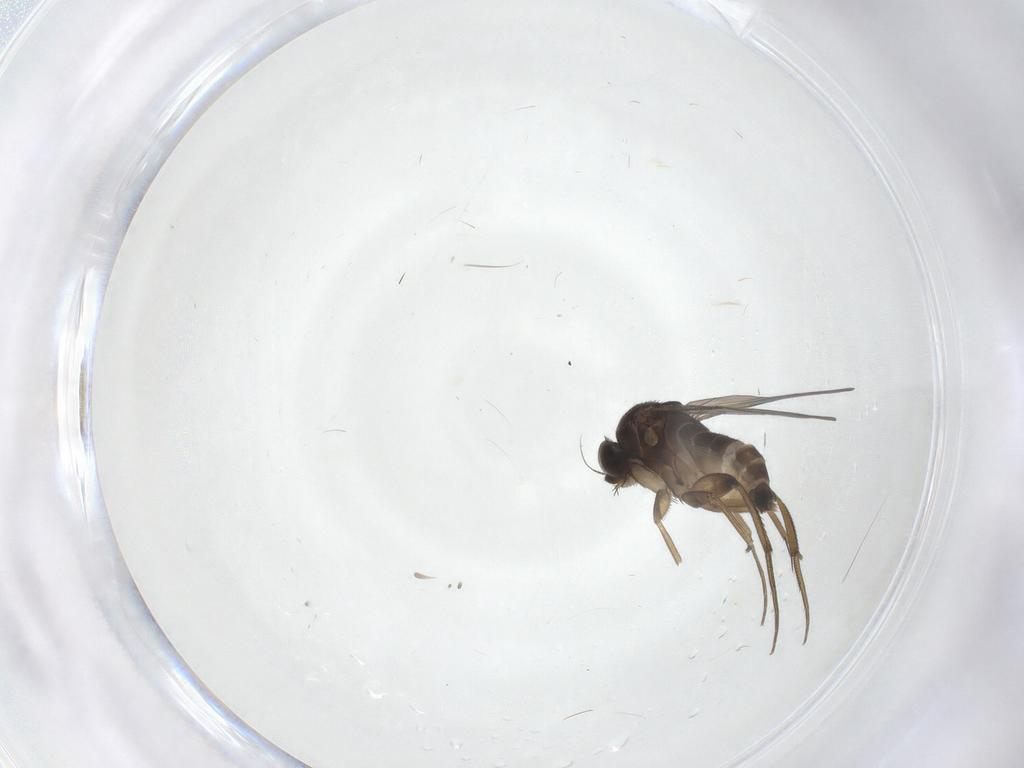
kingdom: Animalia
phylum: Arthropoda
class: Insecta
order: Diptera
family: Phoridae
